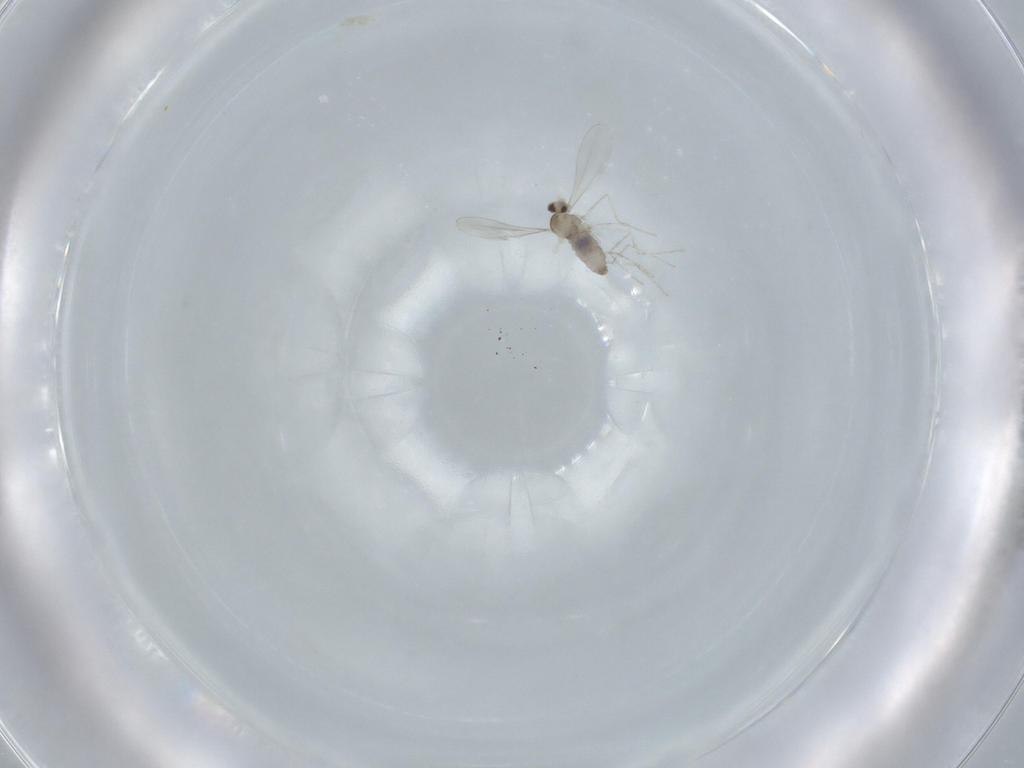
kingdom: Animalia
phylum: Arthropoda
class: Insecta
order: Diptera
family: Cecidomyiidae
